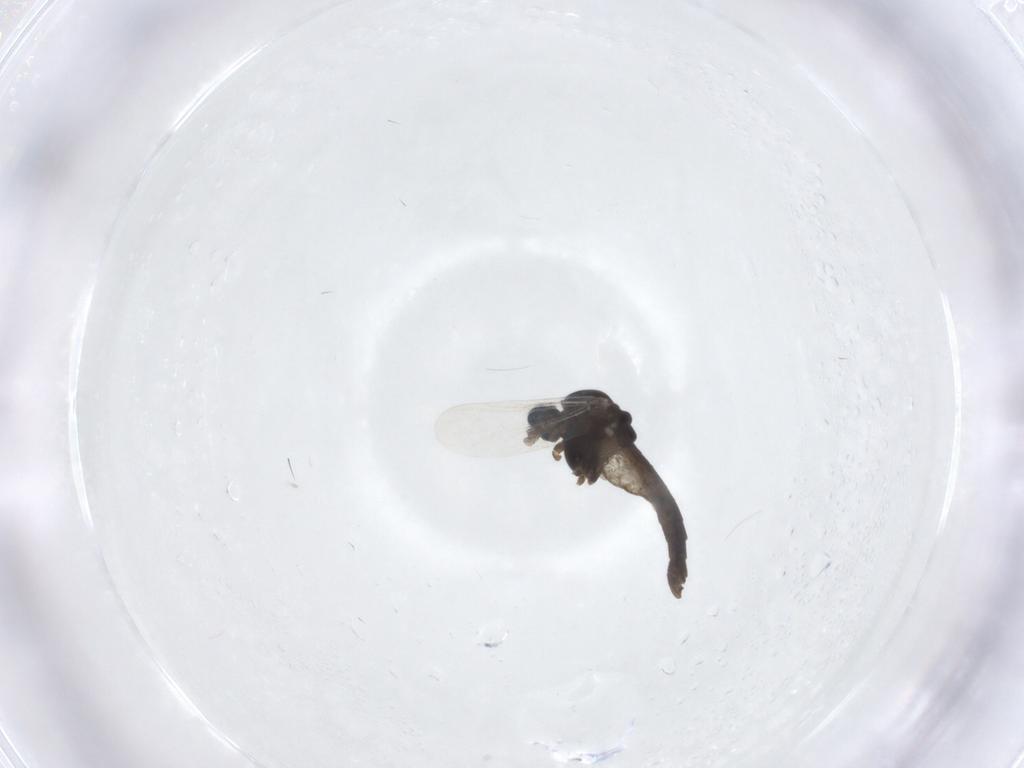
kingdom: Animalia
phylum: Arthropoda
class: Insecta
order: Diptera
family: Chironomidae
